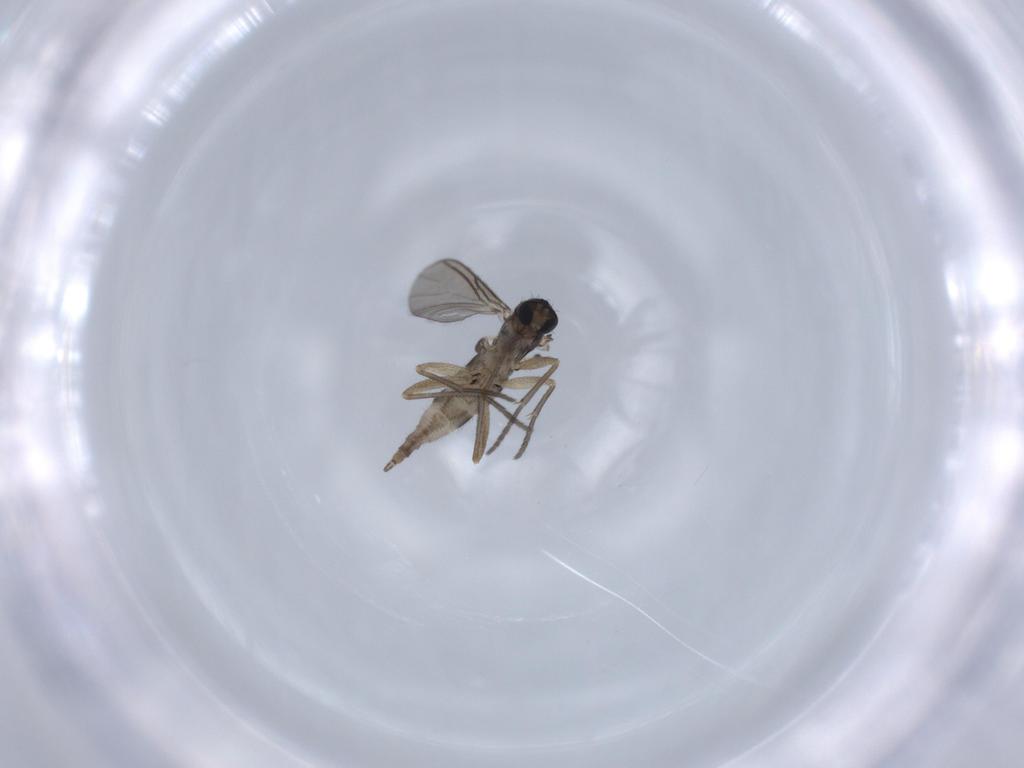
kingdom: Animalia
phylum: Arthropoda
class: Insecta
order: Diptera
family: Sciaridae
